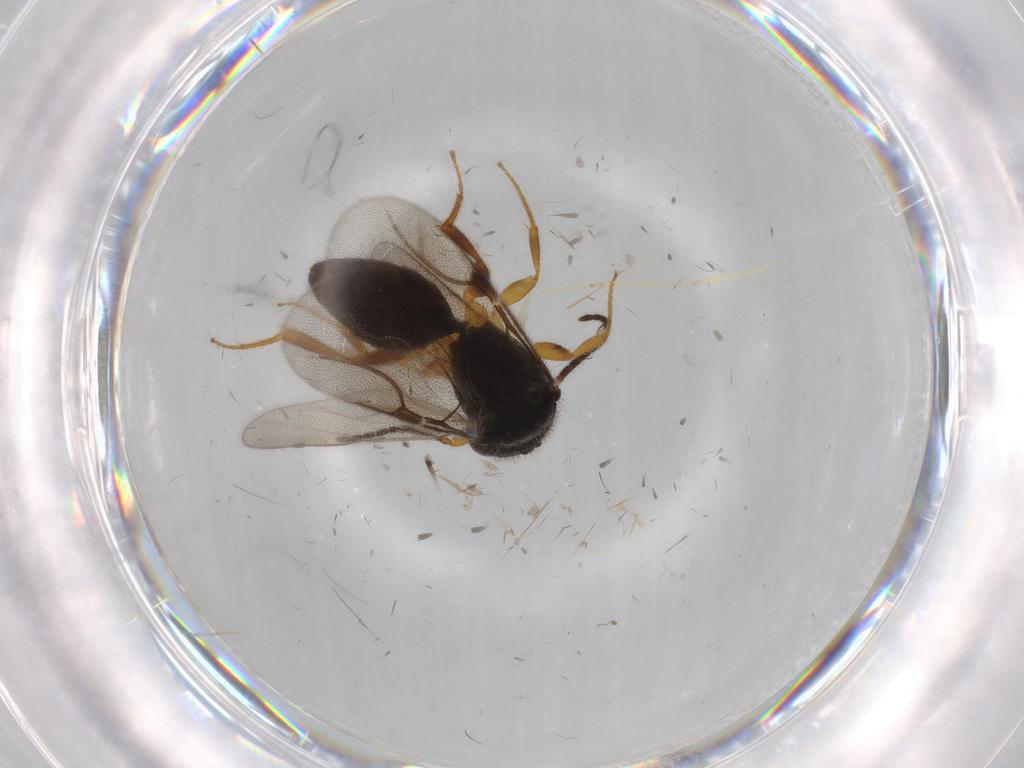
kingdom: Animalia
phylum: Arthropoda
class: Insecta
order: Hymenoptera
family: Bethylidae
